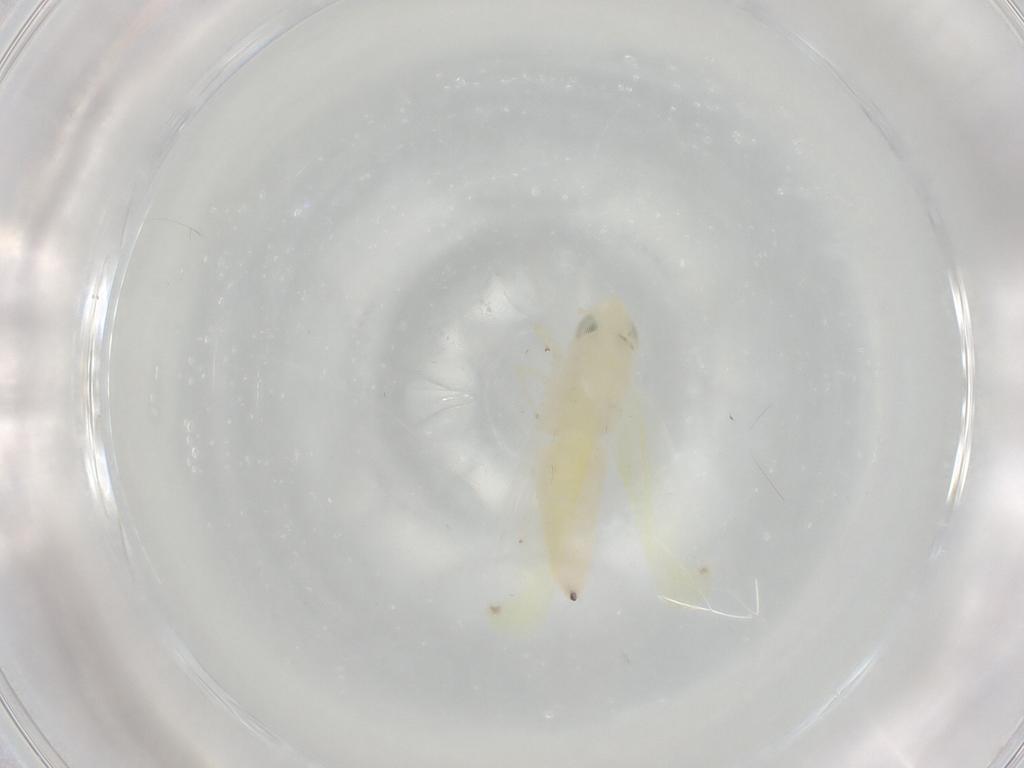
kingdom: Animalia
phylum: Arthropoda
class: Insecta
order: Hemiptera
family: Cicadellidae
